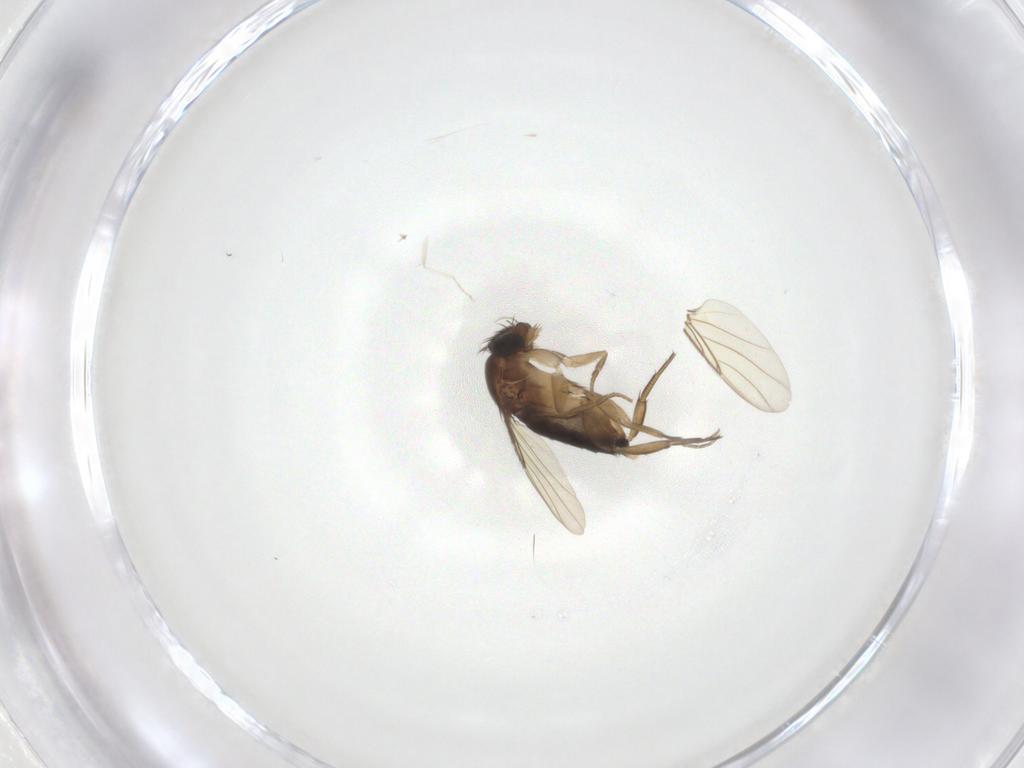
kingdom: Animalia
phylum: Arthropoda
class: Insecta
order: Diptera
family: Phoridae
